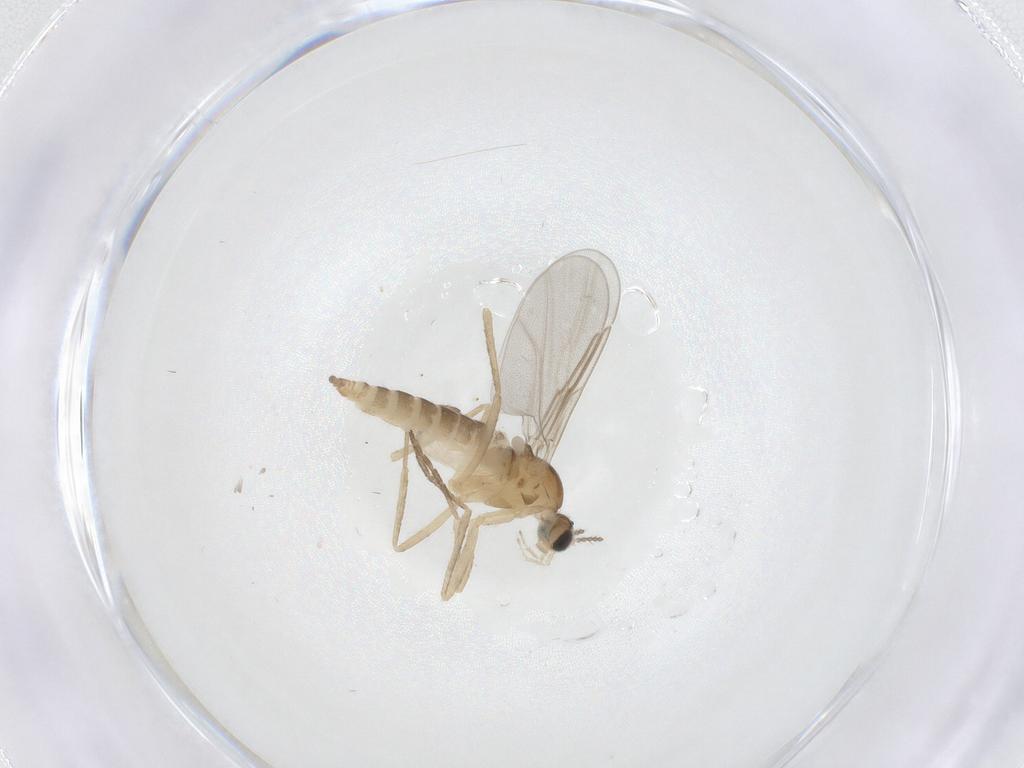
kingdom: Animalia
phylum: Arthropoda
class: Insecta
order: Diptera
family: Cecidomyiidae
